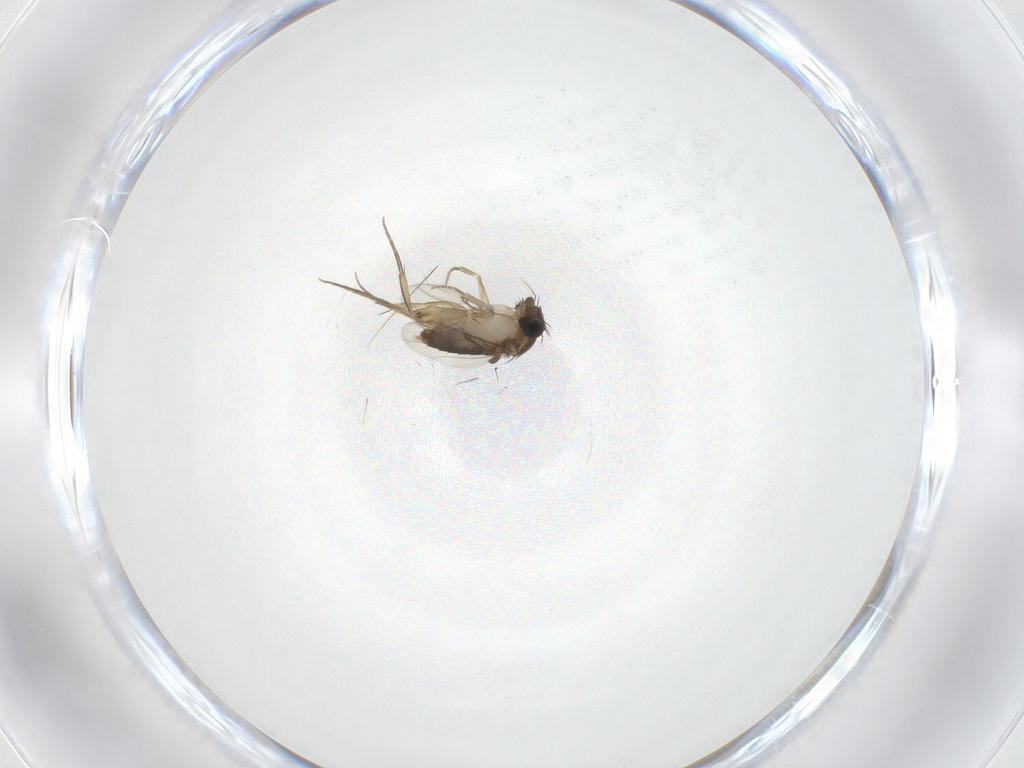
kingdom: Animalia
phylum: Arthropoda
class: Insecta
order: Diptera
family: Phoridae
